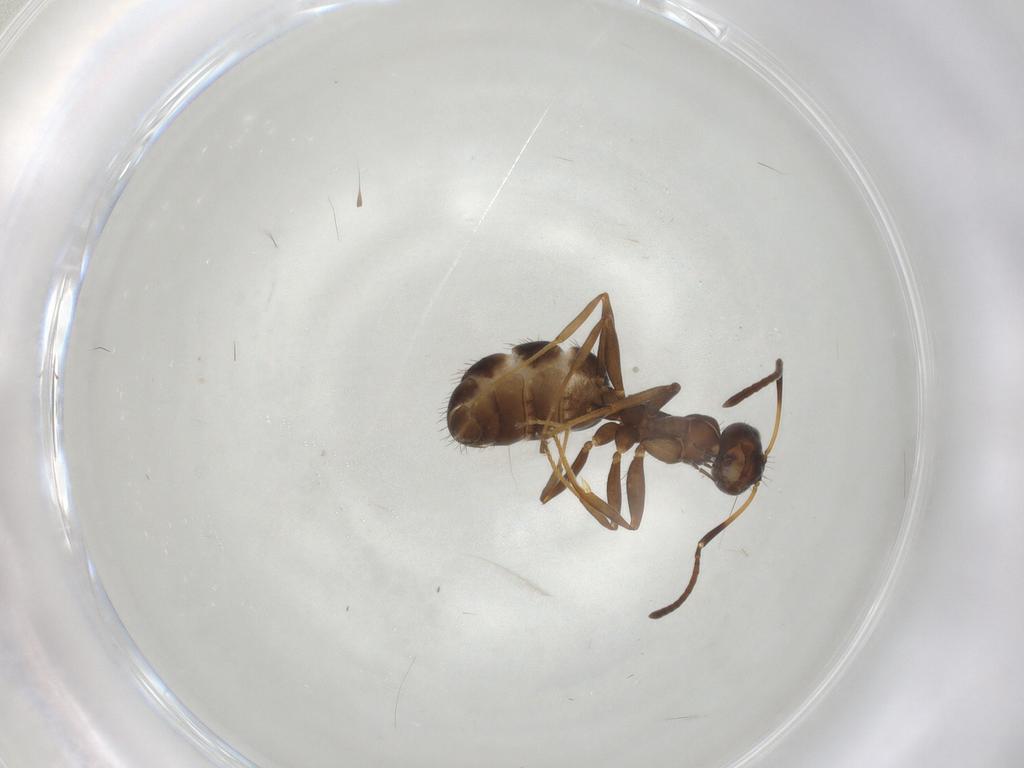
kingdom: Animalia
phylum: Arthropoda
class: Insecta
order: Hymenoptera
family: Formicidae
